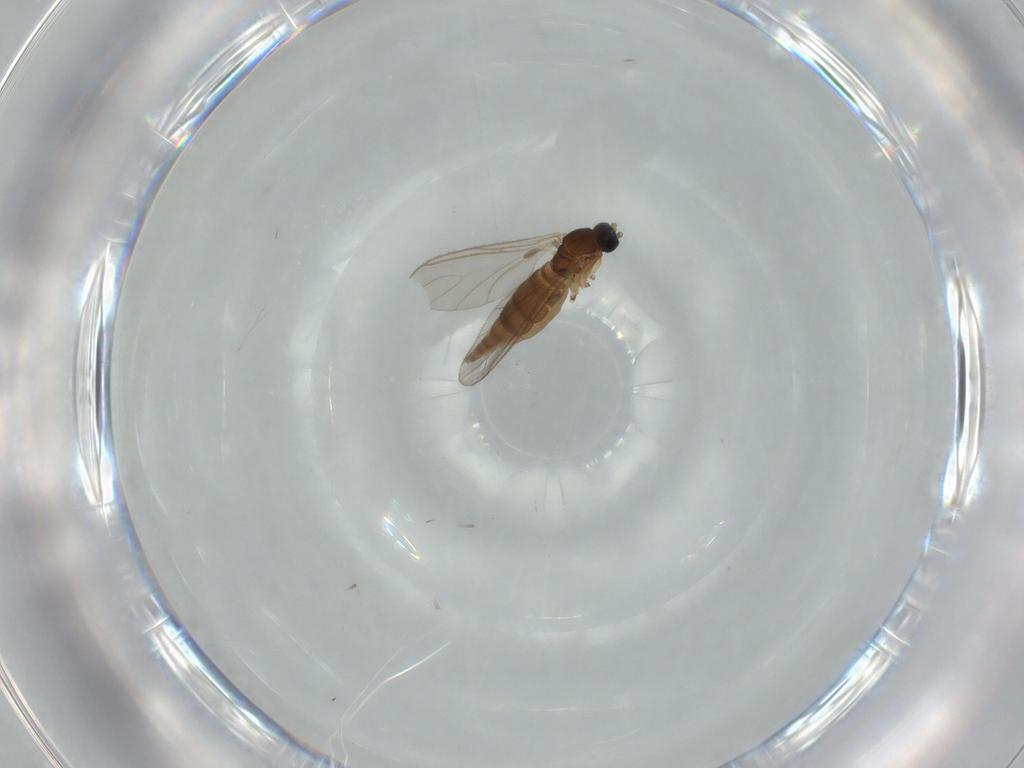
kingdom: Animalia
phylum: Arthropoda
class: Insecta
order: Diptera
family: Sciaridae
